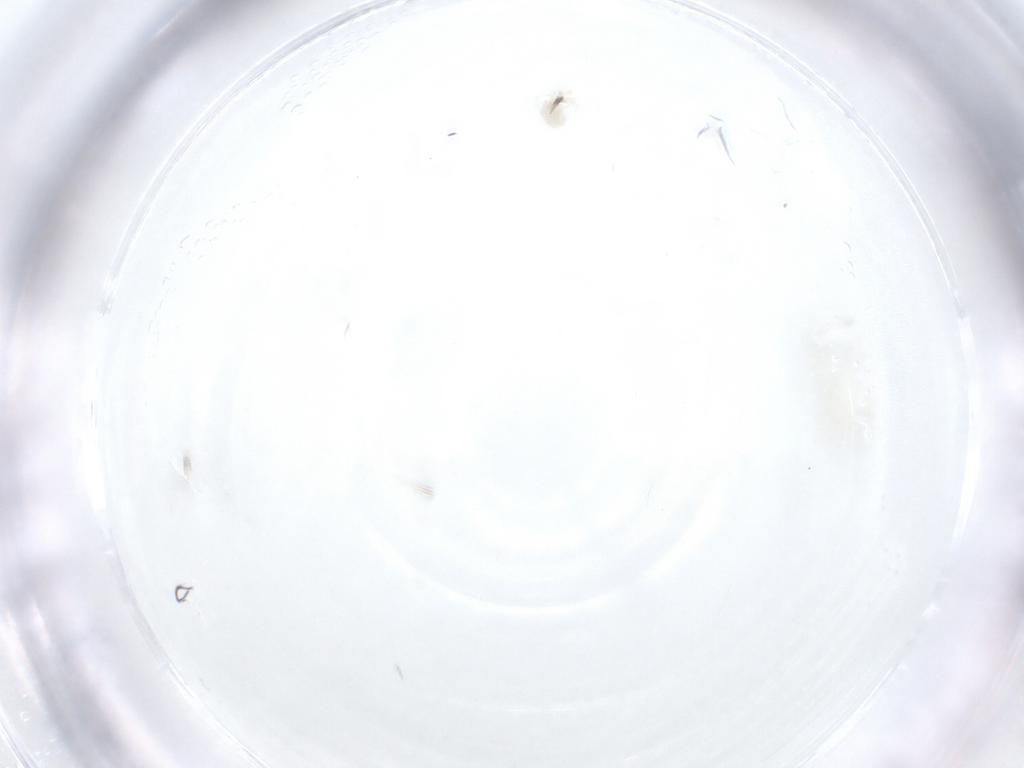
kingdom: Animalia
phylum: Arthropoda
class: Arachnida
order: Trombidiformes
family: Anystidae
